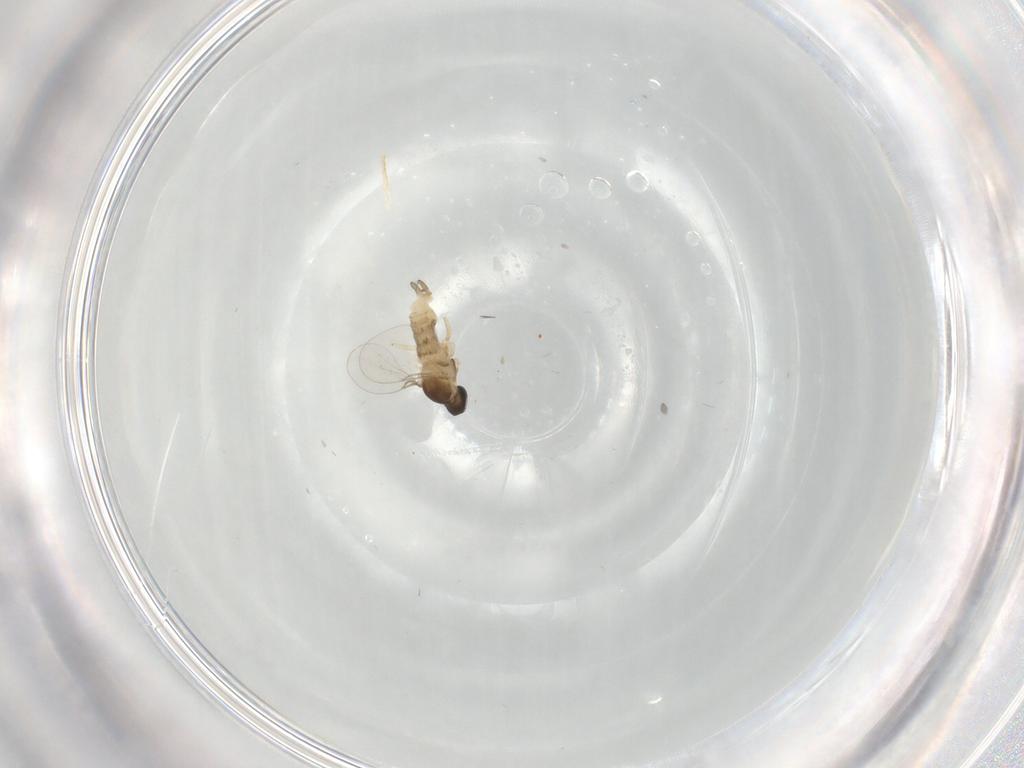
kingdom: Animalia
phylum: Arthropoda
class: Insecta
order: Diptera
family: Cecidomyiidae
